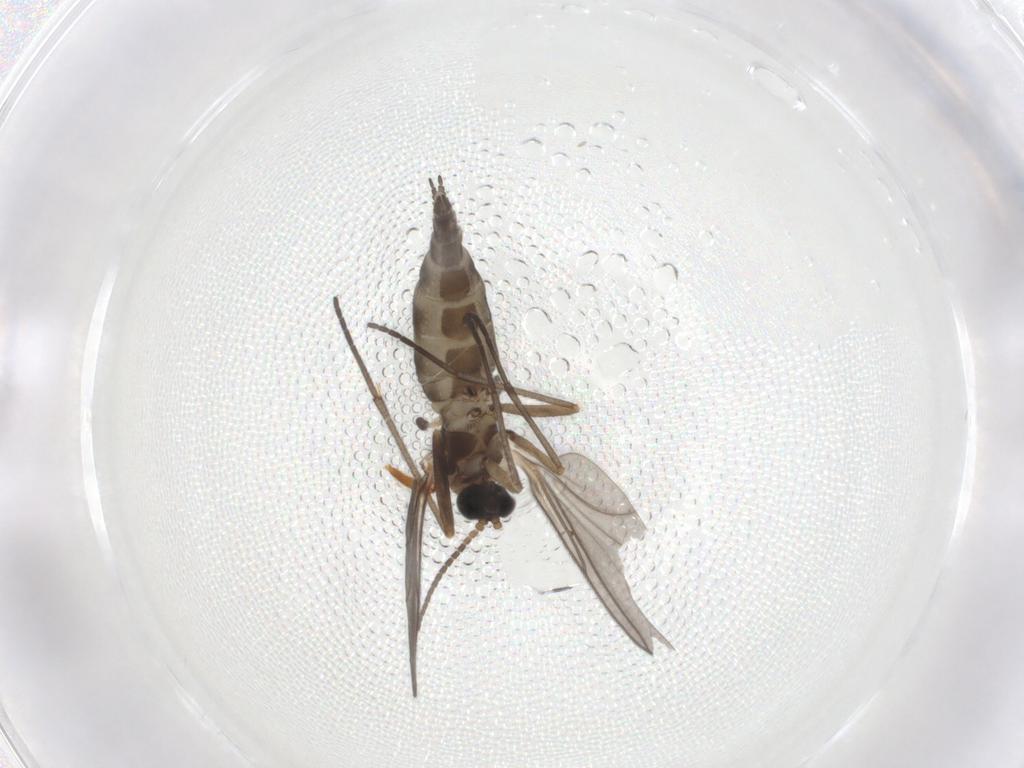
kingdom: Animalia
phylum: Arthropoda
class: Insecta
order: Diptera
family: Sciaridae
